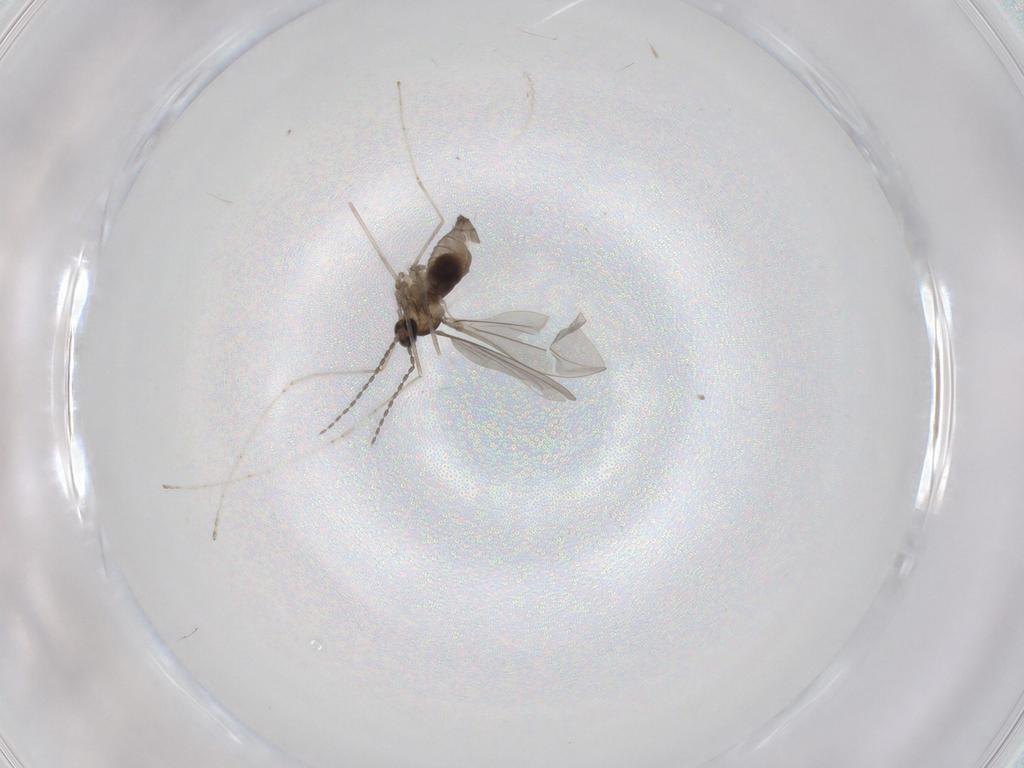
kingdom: Animalia
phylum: Arthropoda
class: Insecta
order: Diptera
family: Cecidomyiidae
